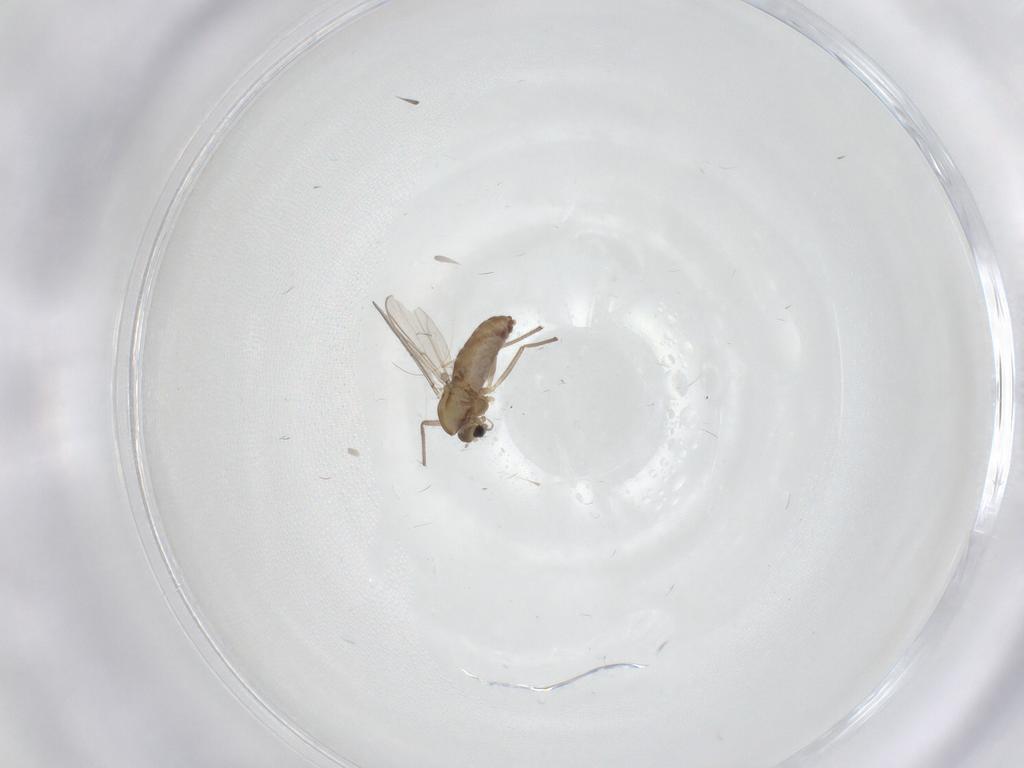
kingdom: Animalia
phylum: Arthropoda
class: Insecta
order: Diptera
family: Chironomidae
